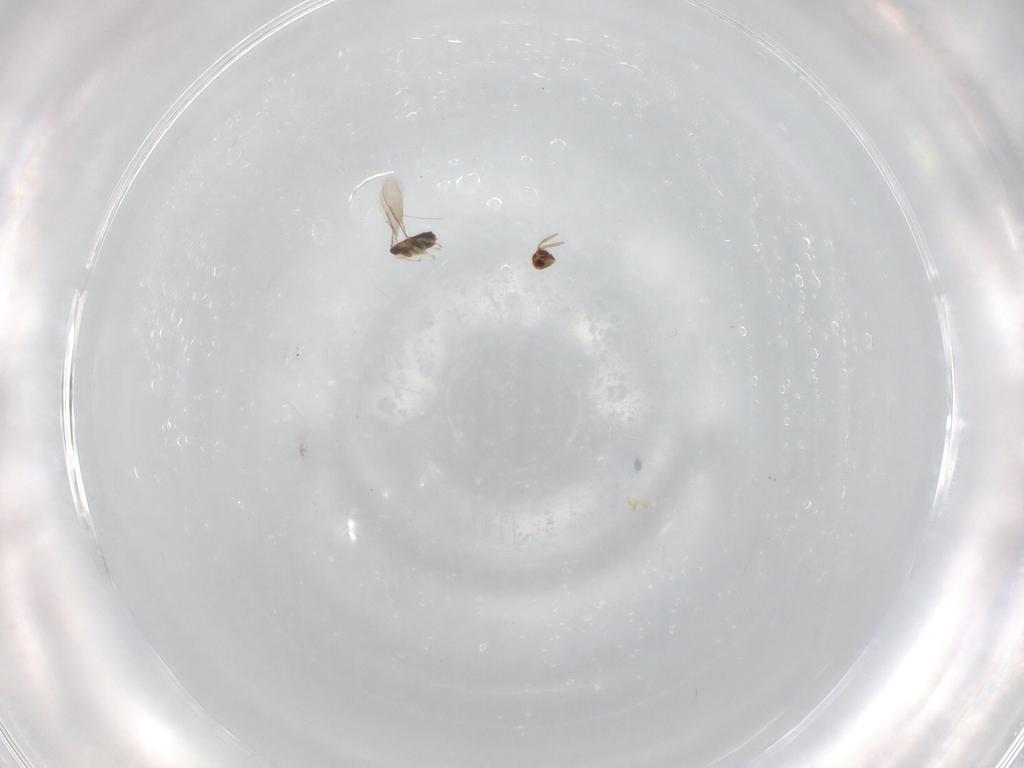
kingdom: Animalia
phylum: Arthropoda
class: Insecta
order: Hymenoptera
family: Aphelinidae
